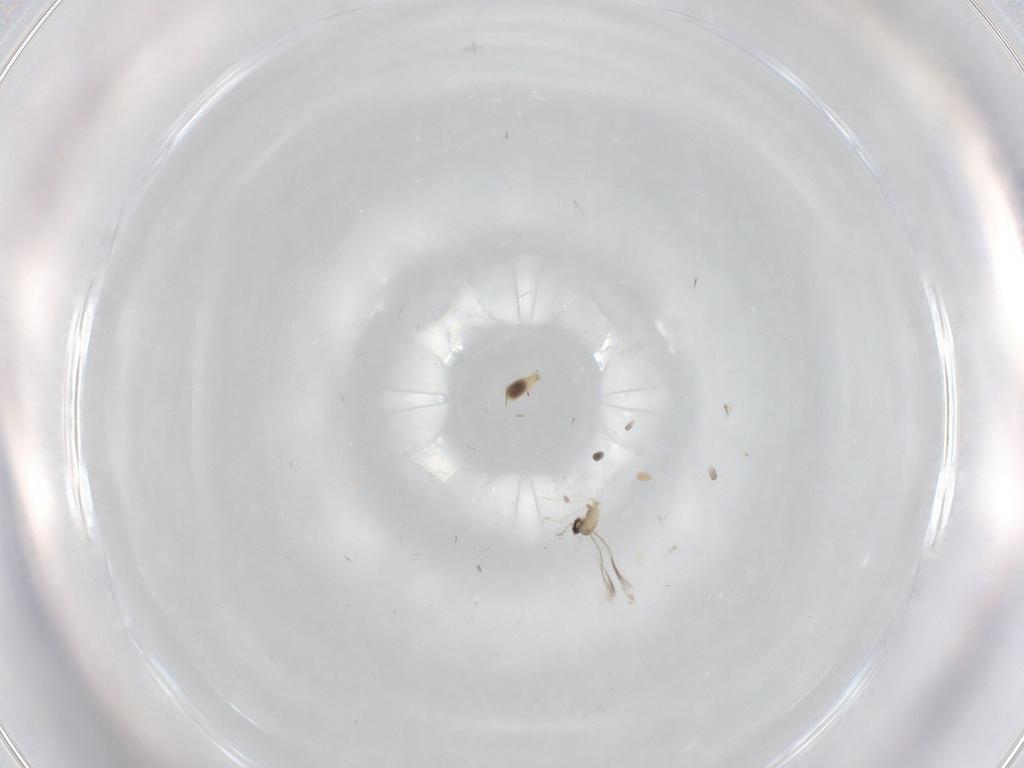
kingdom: Animalia
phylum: Arthropoda
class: Insecta
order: Diptera
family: Cecidomyiidae
